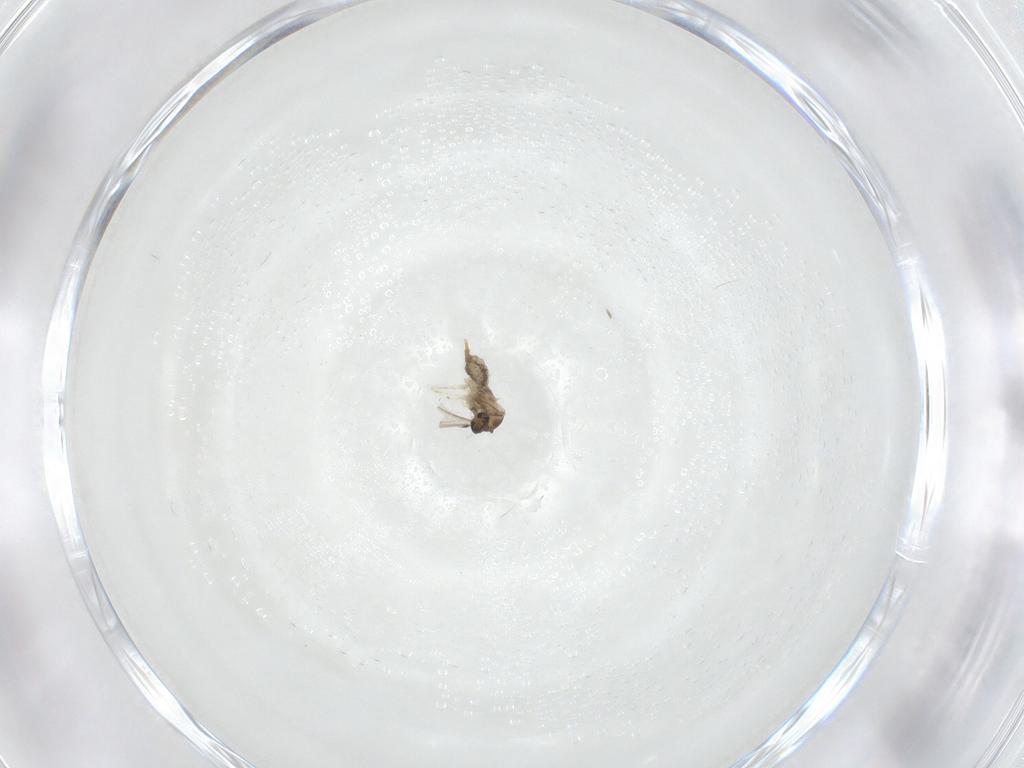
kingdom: Animalia
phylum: Arthropoda
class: Insecta
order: Diptera
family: Cecidomyiidae
